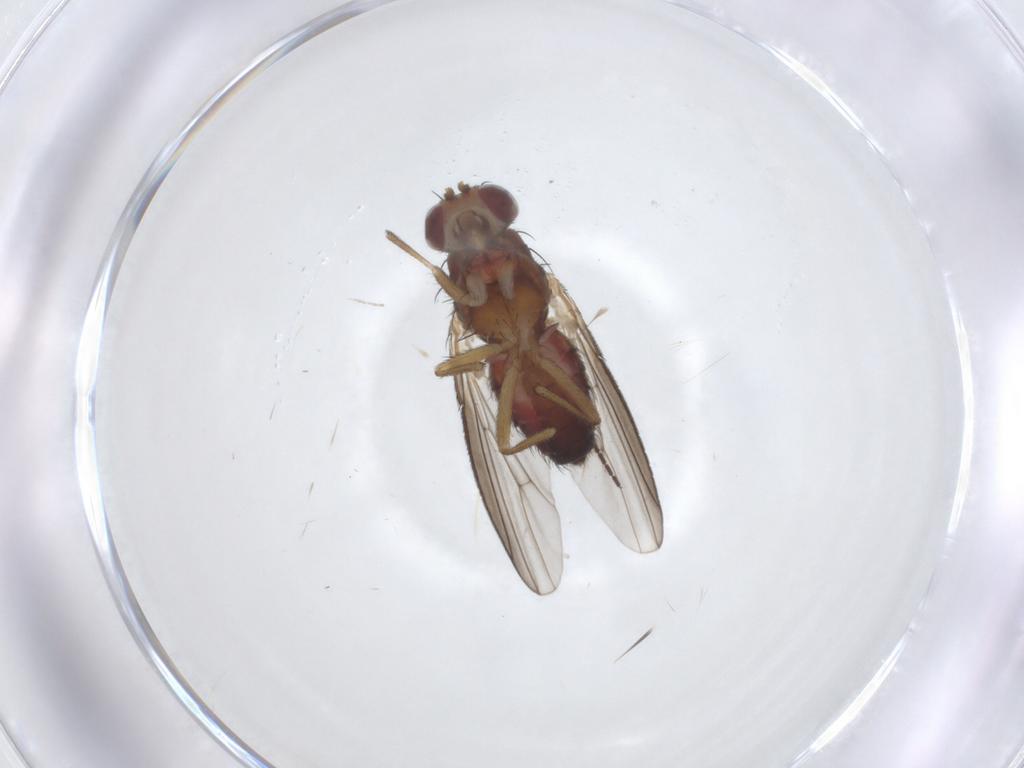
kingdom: Animalia
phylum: Arthropoda
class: Insecta
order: Diptera
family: Heleomyzidae
